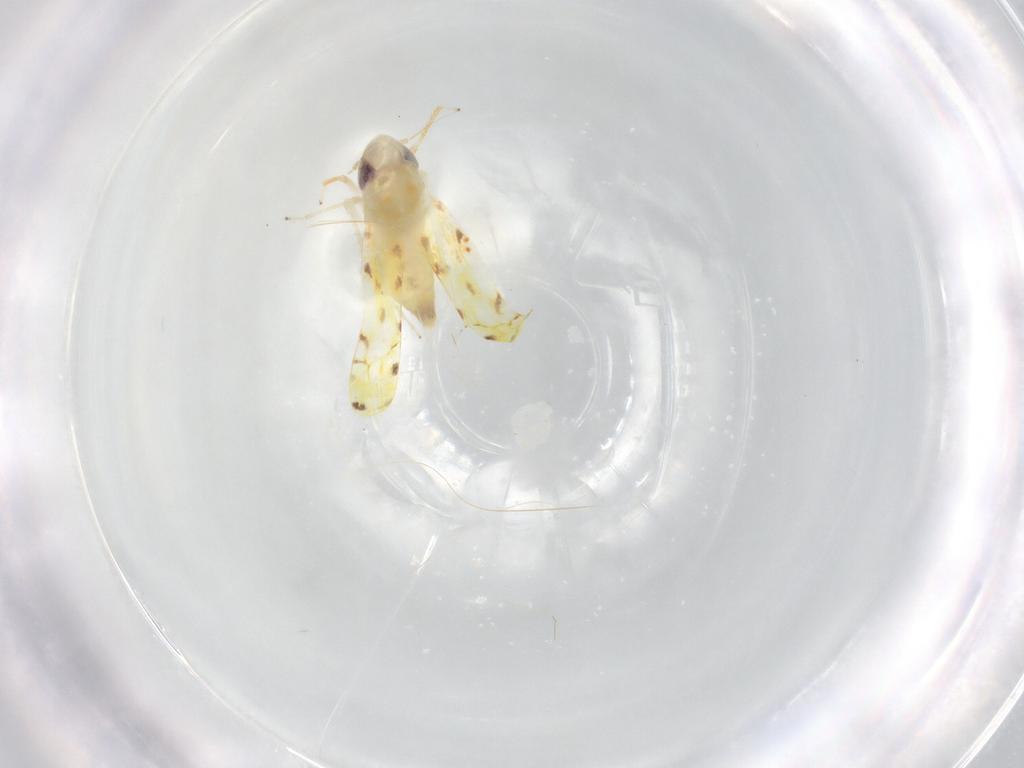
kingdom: Animalia
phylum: Arthropoda
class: Insecta
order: Hemiptera
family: Cicadellidae
